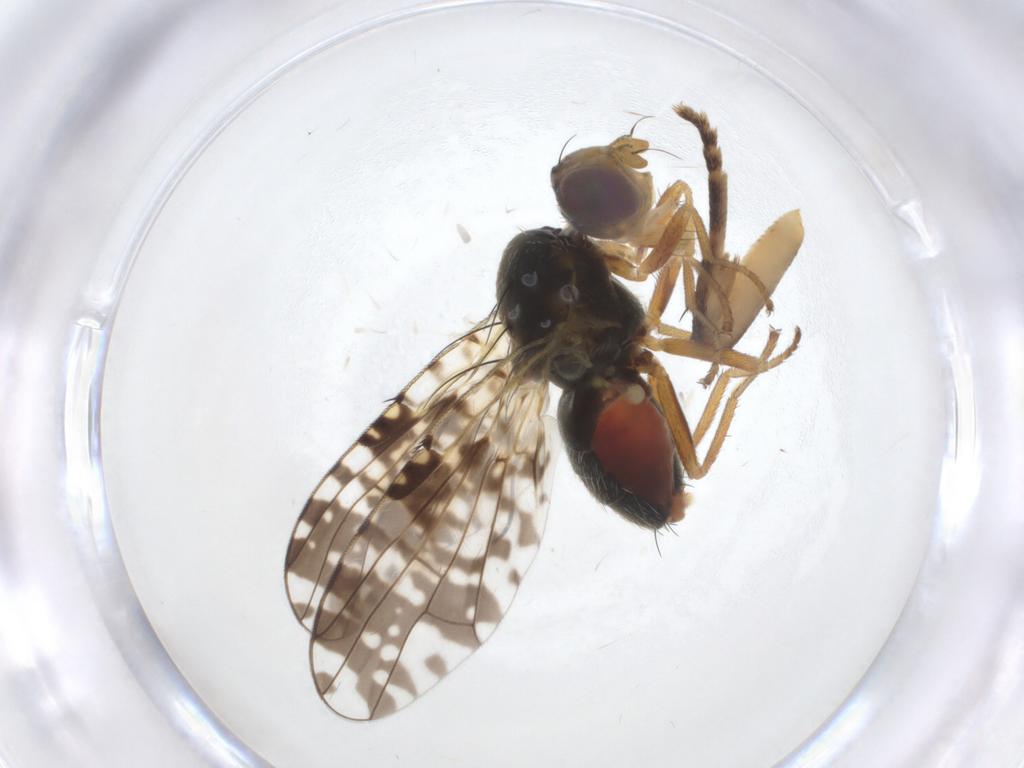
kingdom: Animalia
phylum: Arthropoda
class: Insecta
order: Diptera
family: Tephritidae
